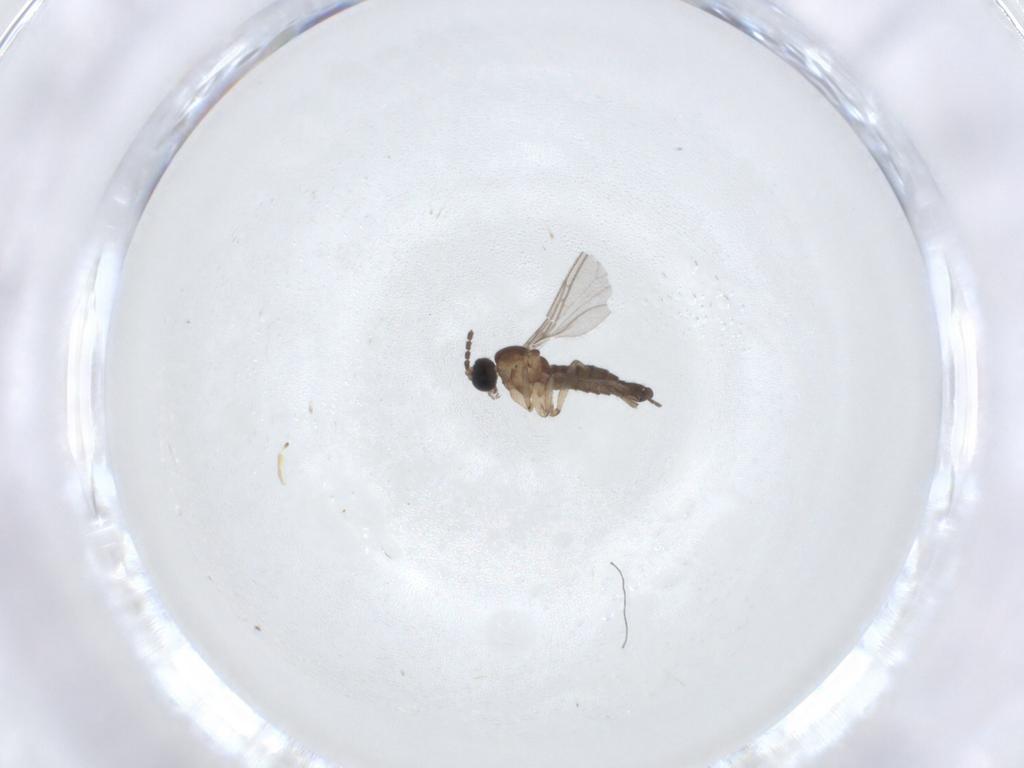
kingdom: Animalia
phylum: Arthropoda
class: Insecta
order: Diptera
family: Sciaridae
